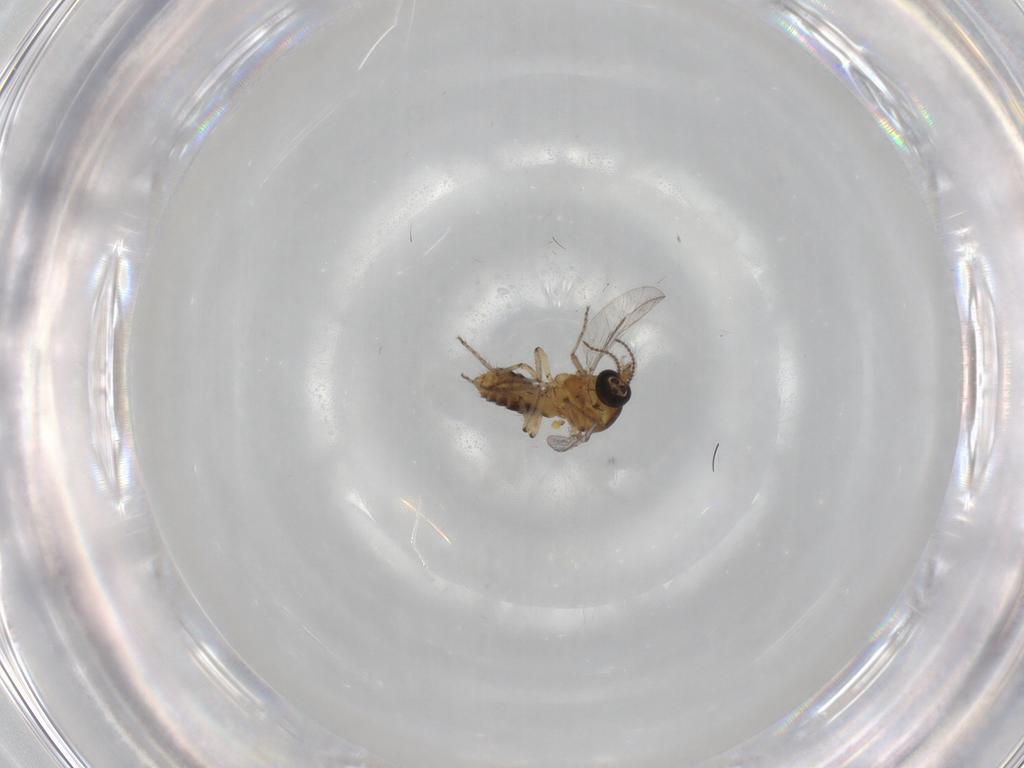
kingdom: Animalia
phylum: Arthropoda
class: Insecta
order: Diptera
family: Ceratopogonidae
